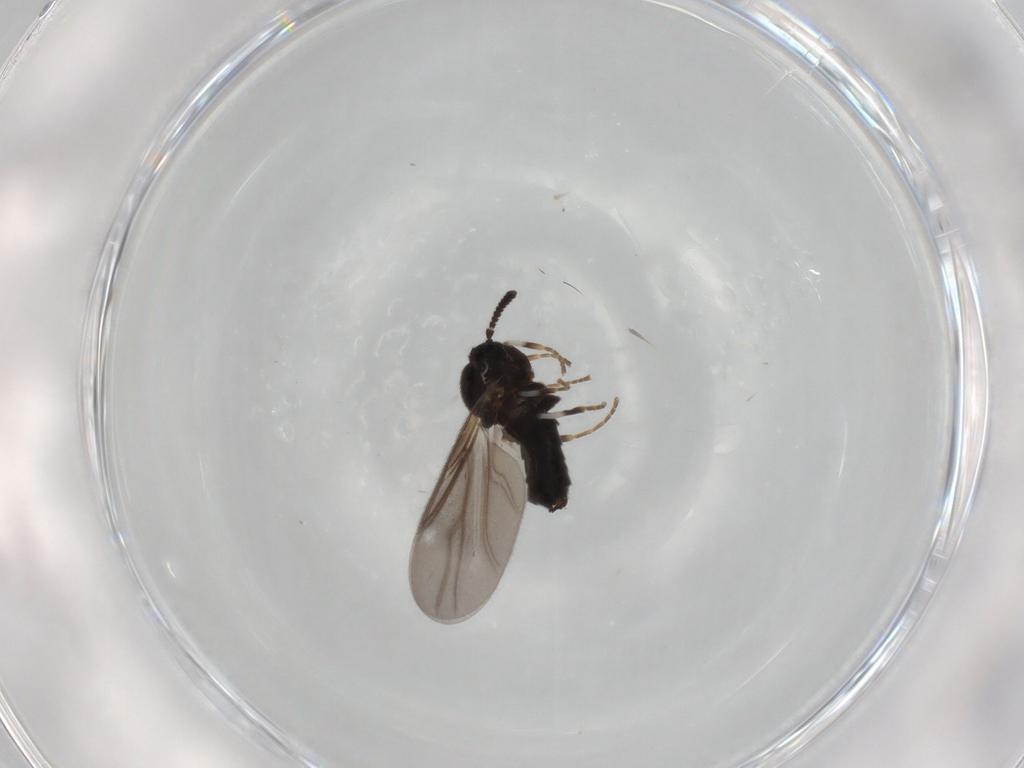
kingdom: Animalia
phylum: Arthropoda
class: Insecta
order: Diptera
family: Scatopsidae
